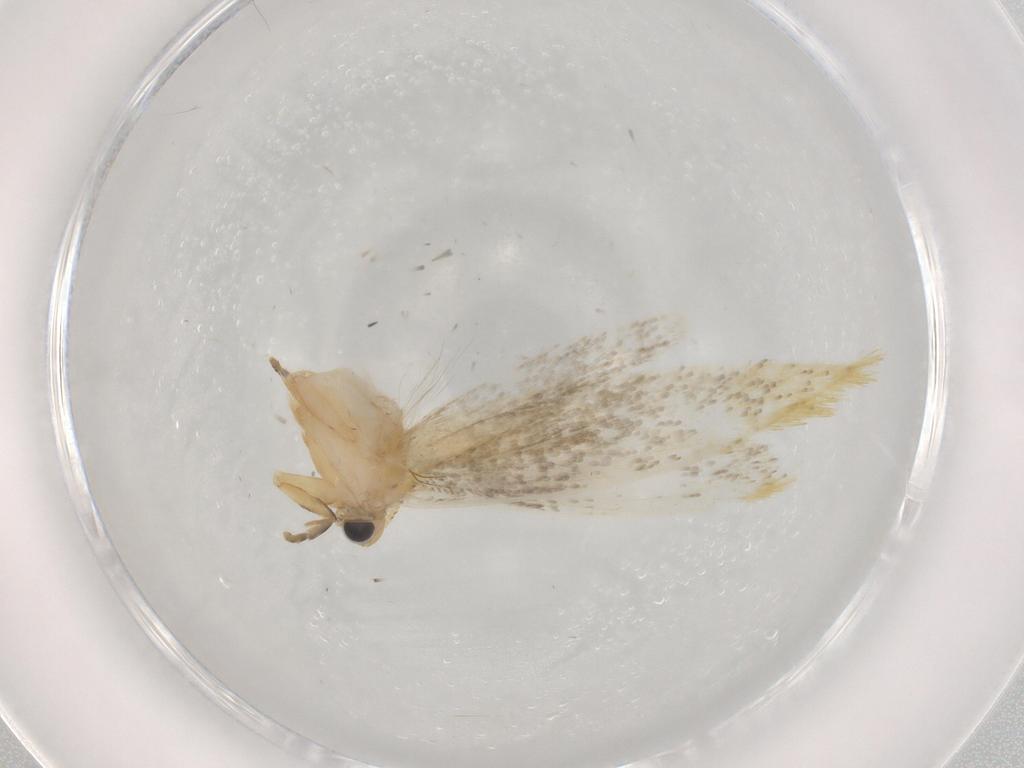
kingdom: Animalia
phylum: Arthropoda
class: Insecta
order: Lepidoptera
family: Tineidae
